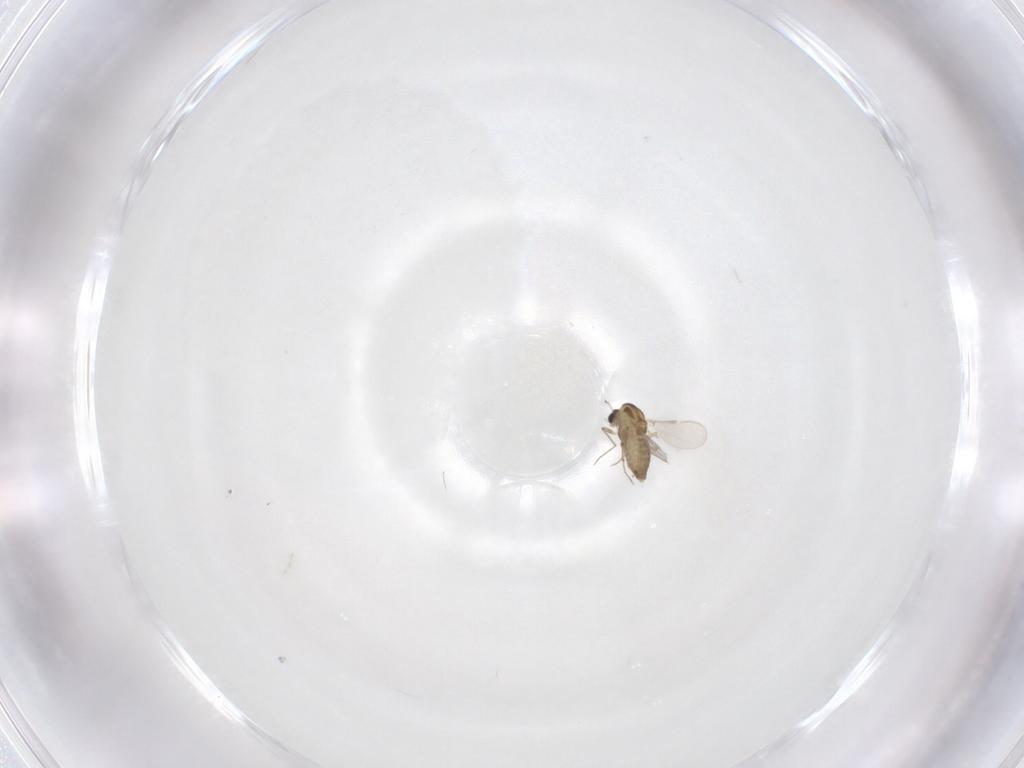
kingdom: Animalia
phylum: Arthropoda
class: Insecta
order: Diptera
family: Chironomidae
